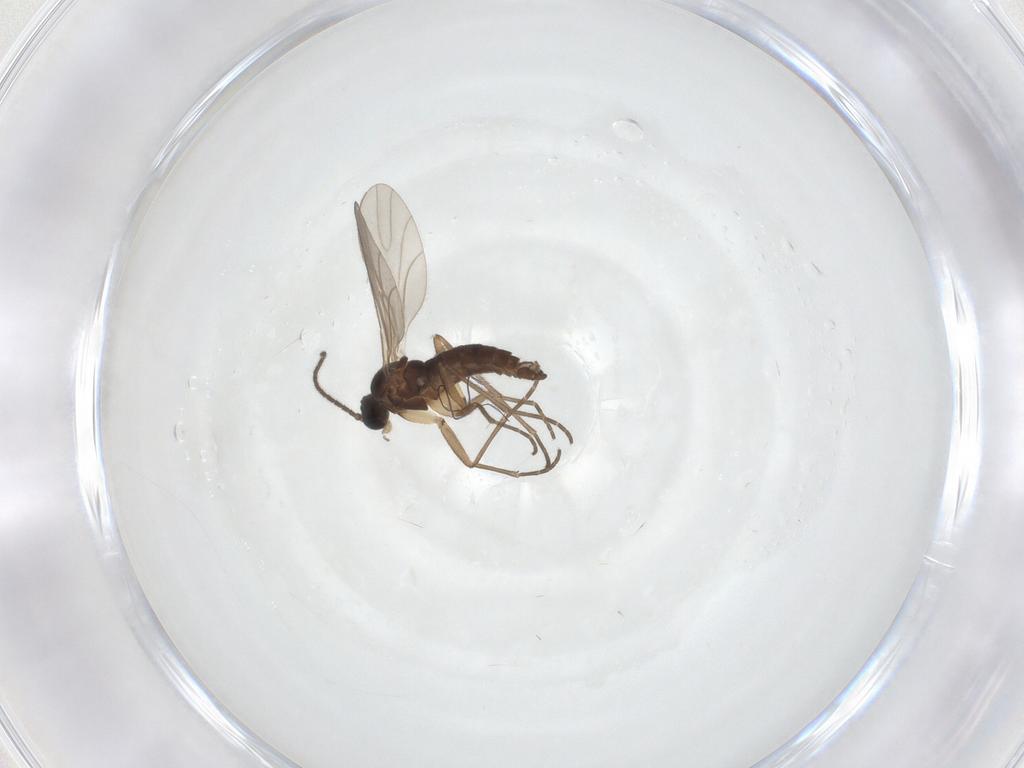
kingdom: Animalia
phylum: Arthropoda
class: Insecta
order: Diptera
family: Sciaridae
